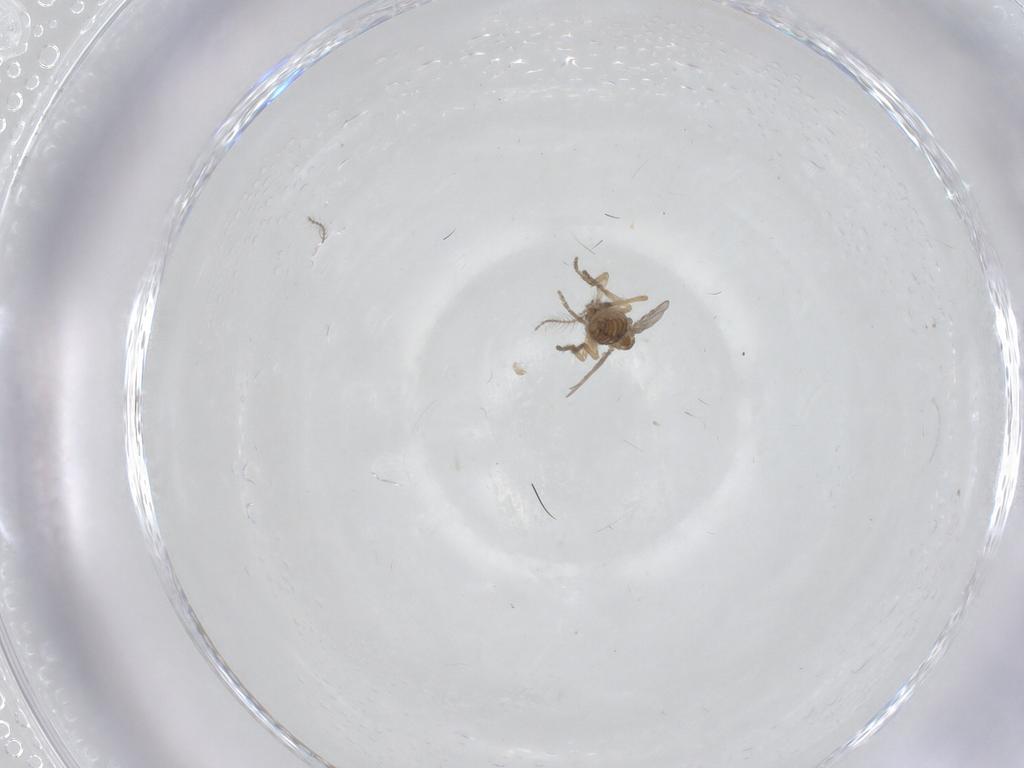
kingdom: Animalia
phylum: Arthropoda
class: Insecta
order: Diptera
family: Ceratopogonidae
